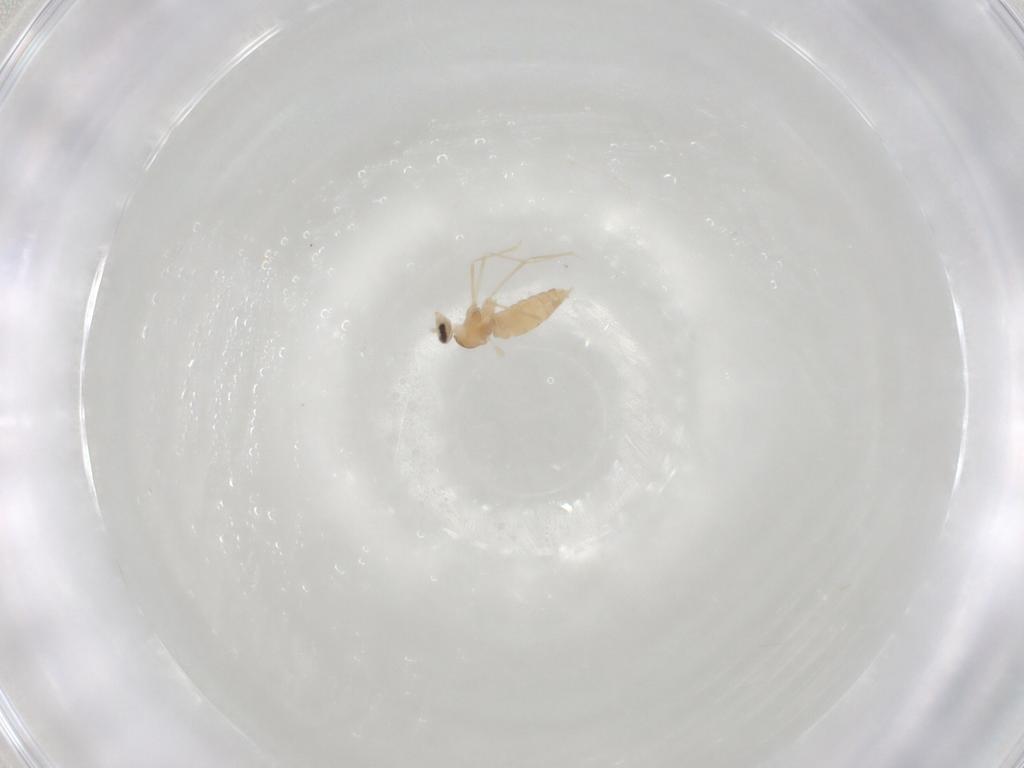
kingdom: Animalia
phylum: Arthropoda
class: Insecta
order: Diptera
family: Cecidomyiidae
